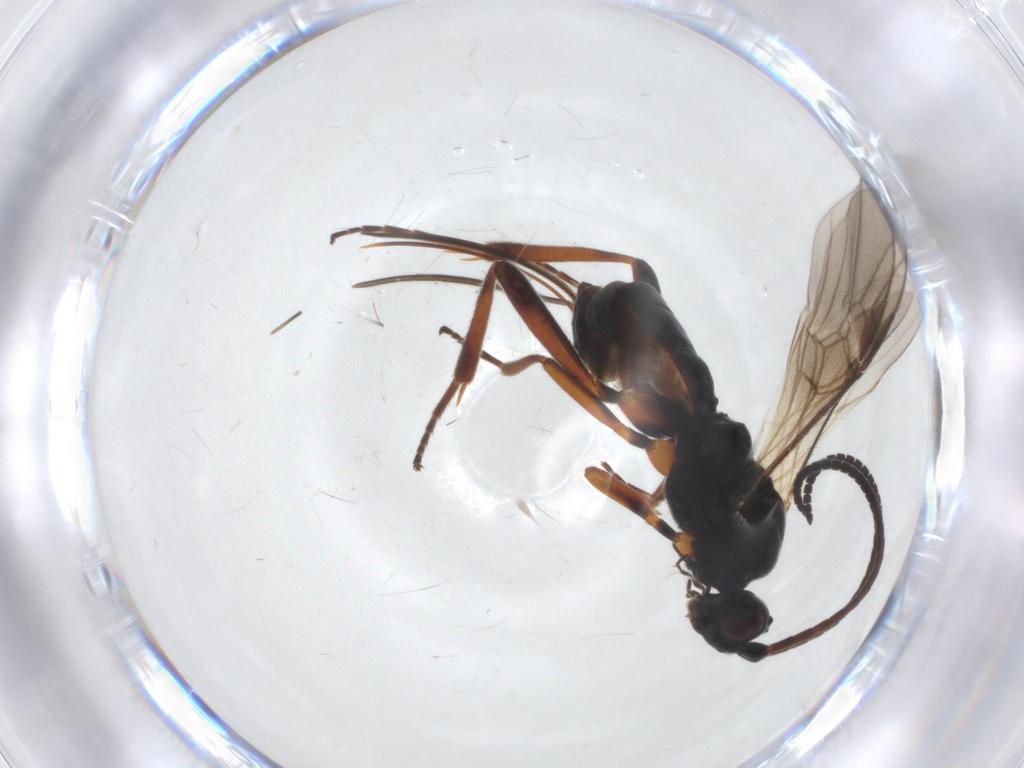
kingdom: Animalia
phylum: Arthropoda
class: Insecta
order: Hymenoptera
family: Braconidae
